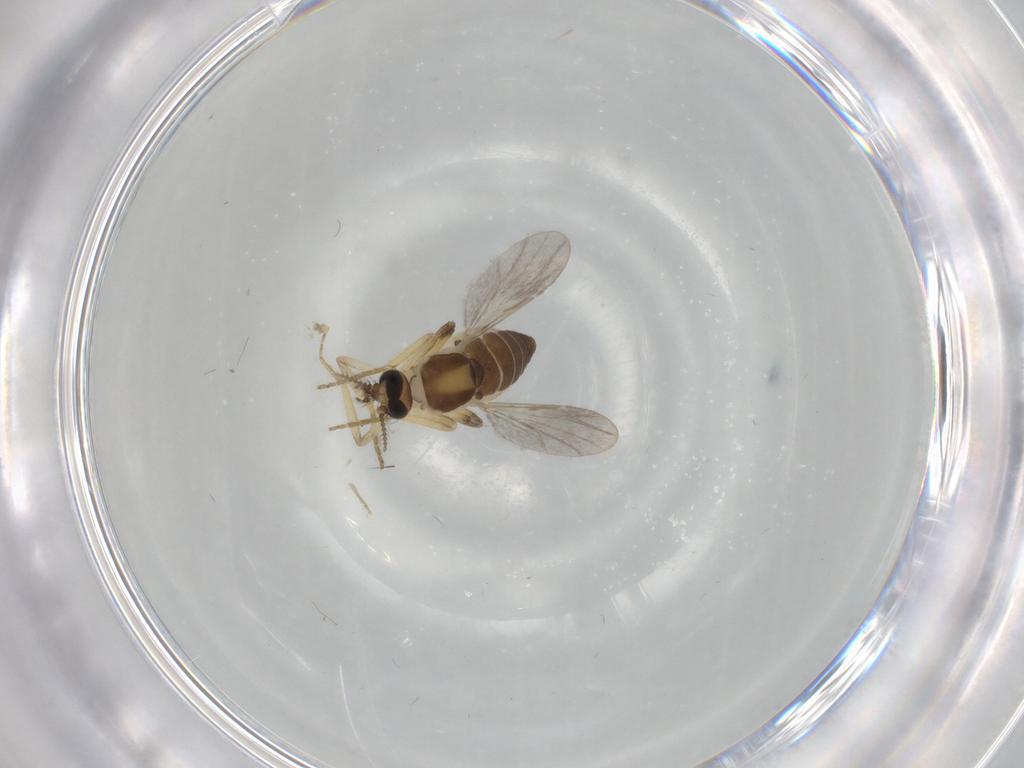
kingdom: Animalia
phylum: Arthropoda
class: Insecta
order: Diptera
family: Ceratopogonidae
